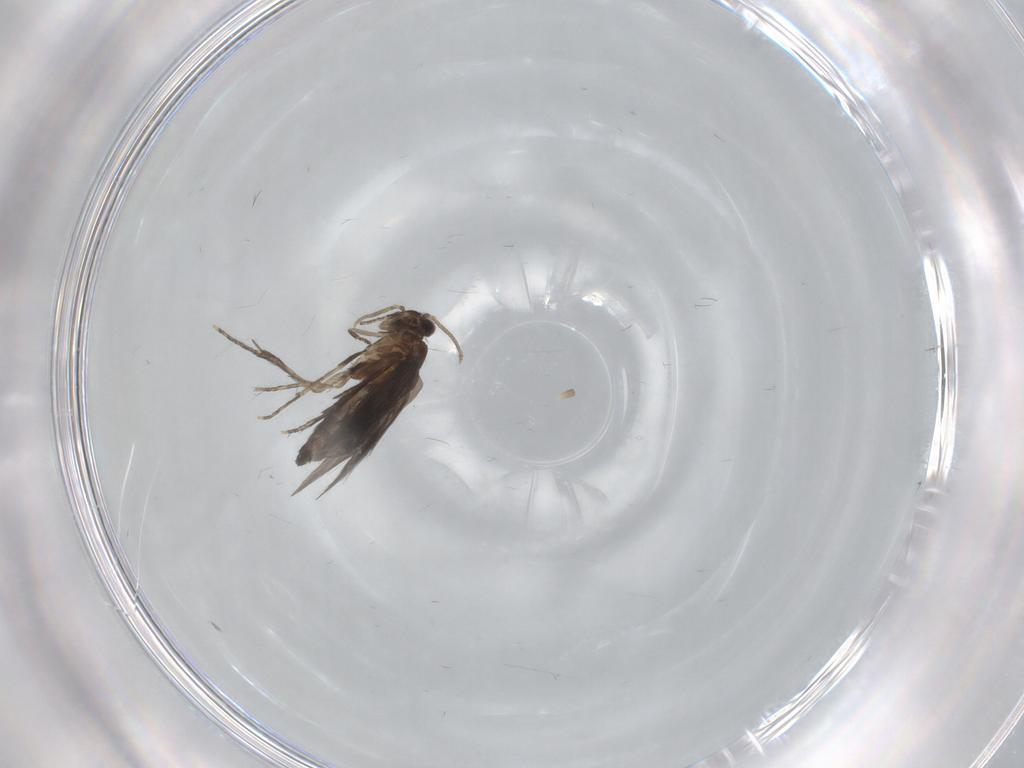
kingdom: Animalia
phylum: Arthropoda
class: Insecta
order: Trichoptera
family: Hydroptilidae
